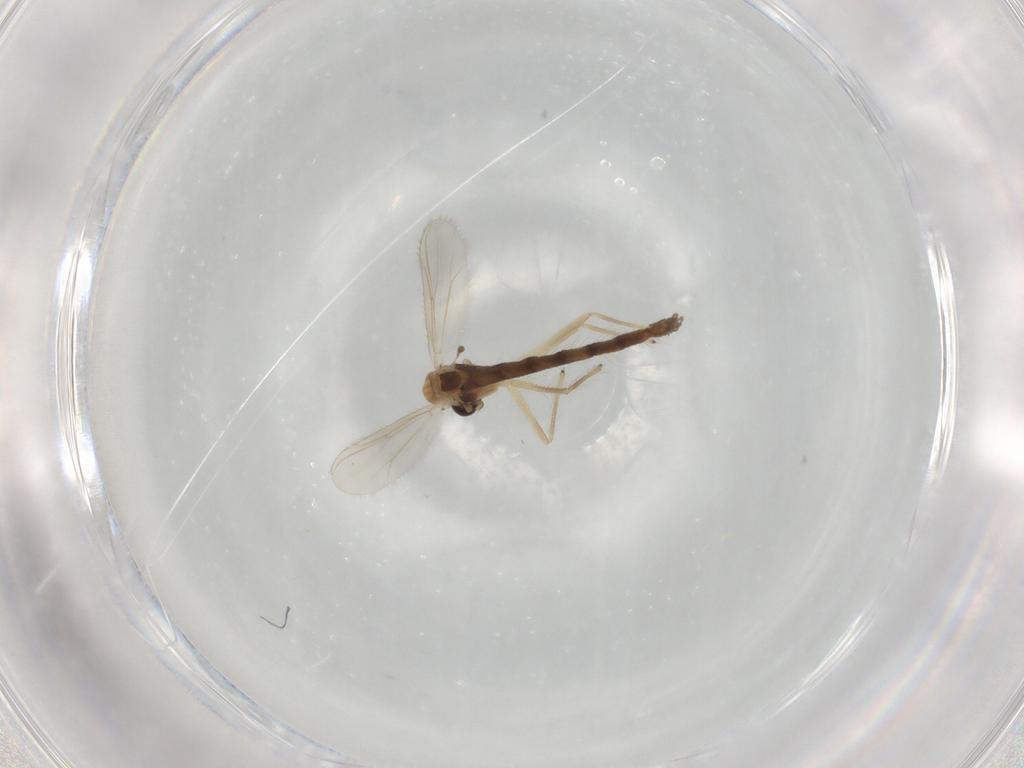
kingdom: Animalia
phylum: Arthropoda
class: Insecta
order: Diptera
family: Chironomidae
